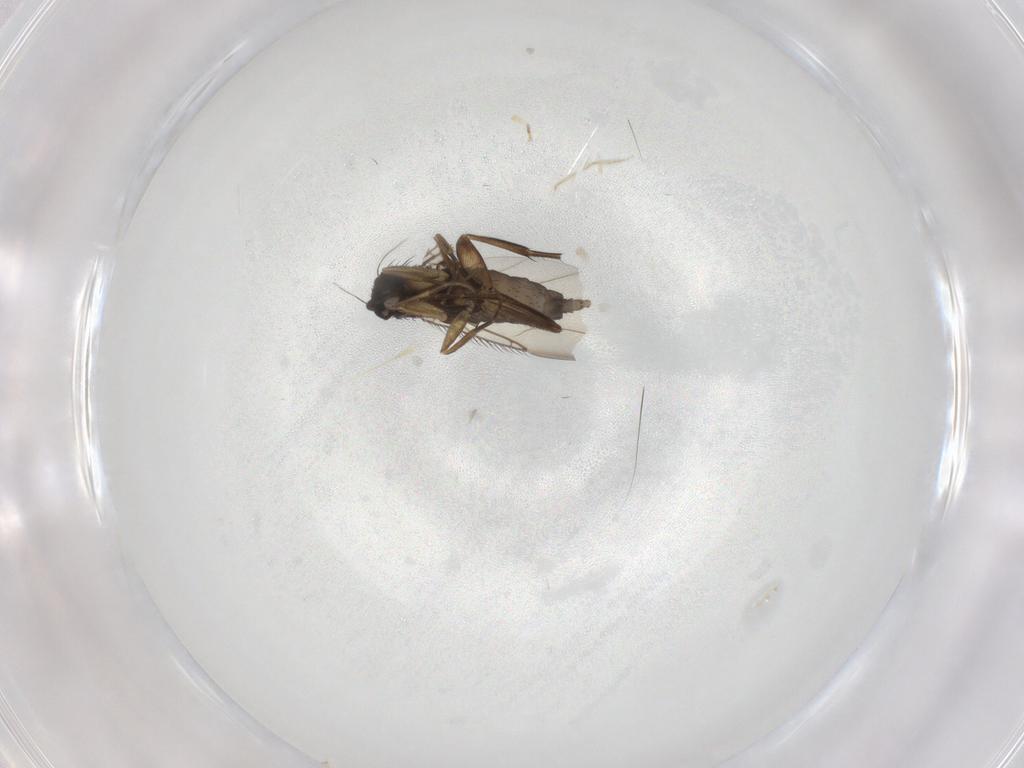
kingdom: Animalia
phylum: Arthropoda
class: Insecta
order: Diptera
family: Phoridae
